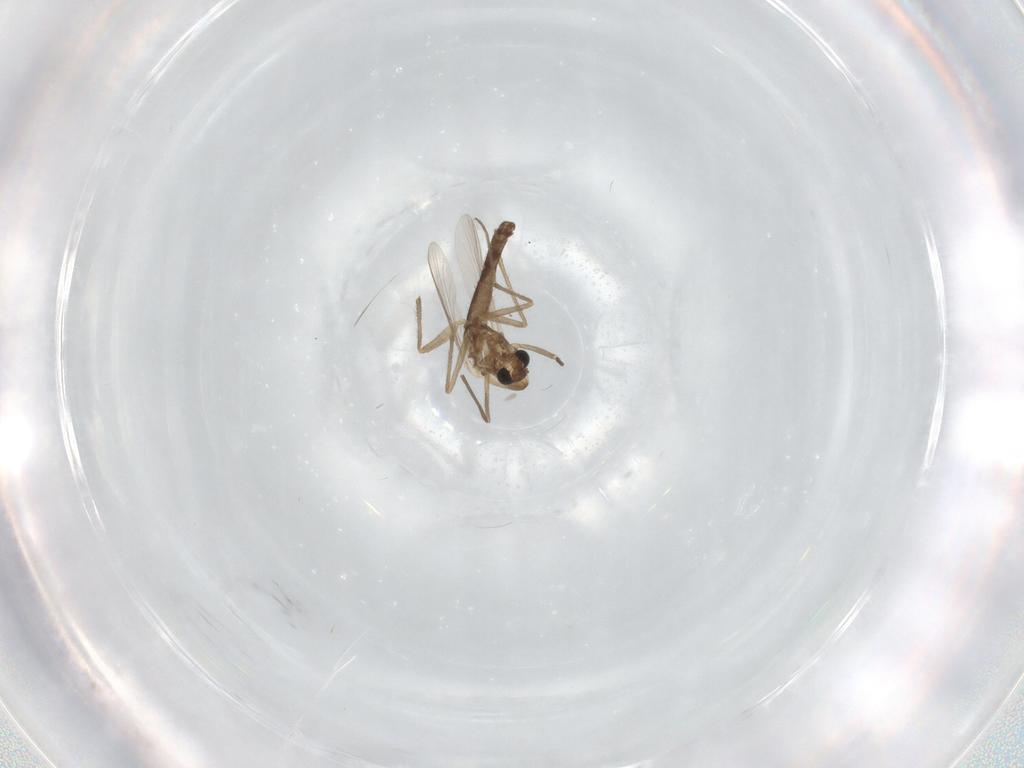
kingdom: Animalia
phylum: Arthropoda
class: Insecta
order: Diptera
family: Chironomidae
